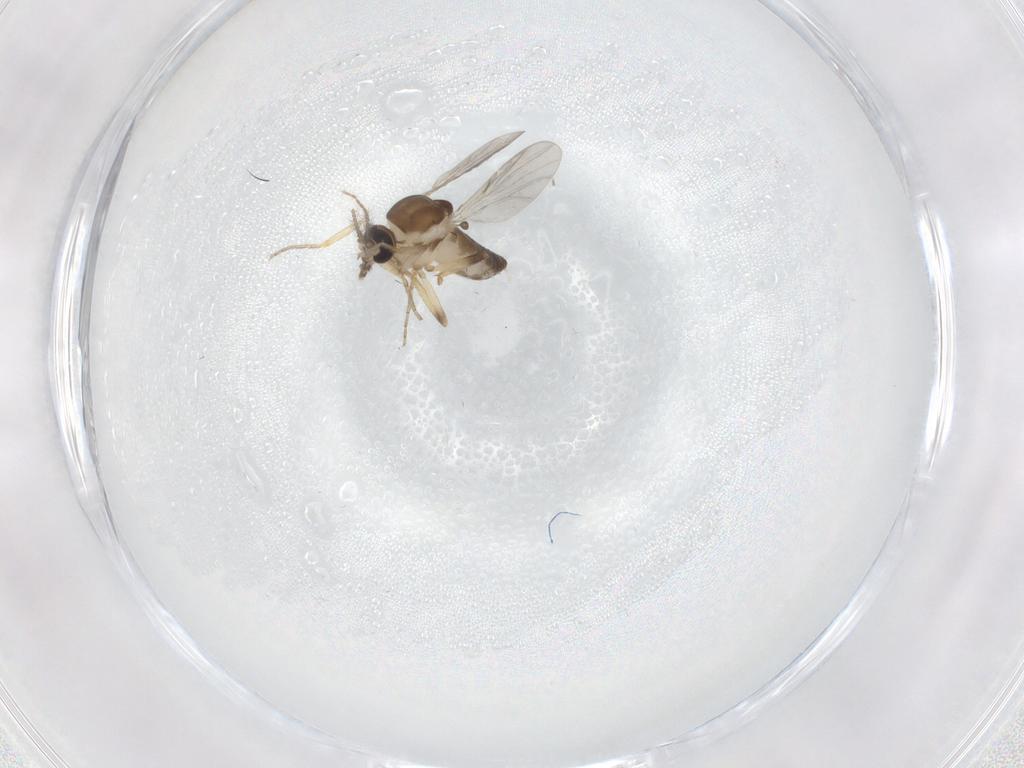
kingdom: Animalia
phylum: Arthropoda
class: Insecta
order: Diptera
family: Ceratopogonidae
